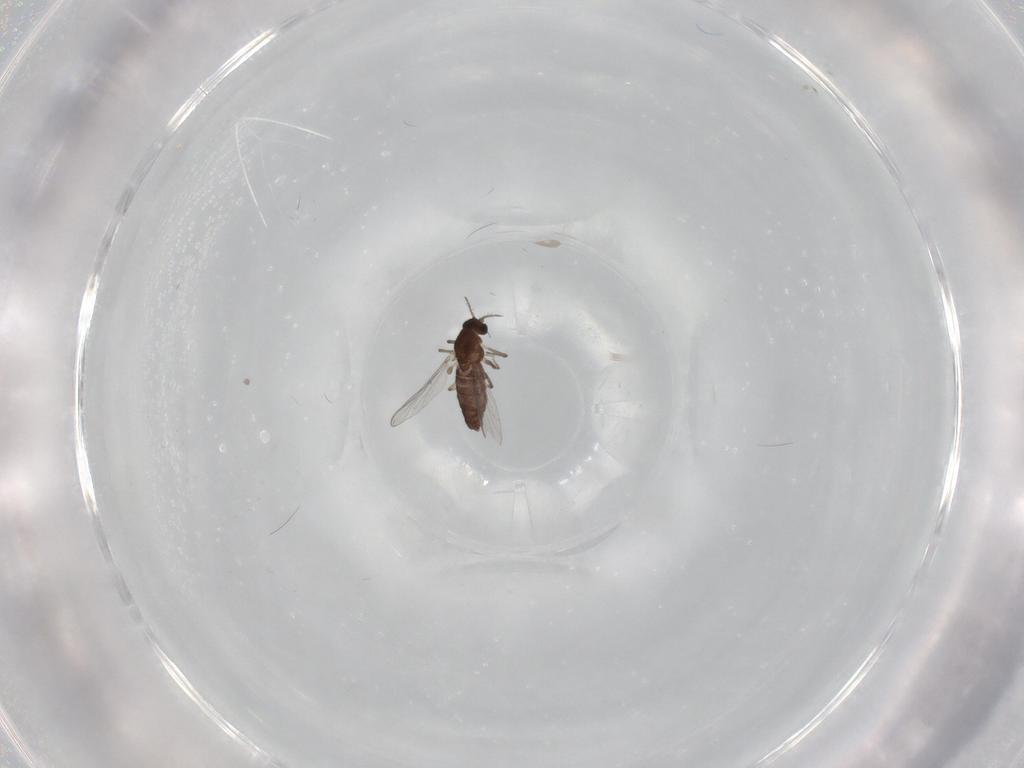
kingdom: Animalia
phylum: Arthropoda
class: Insecta
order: Diptera
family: Chironomidae
